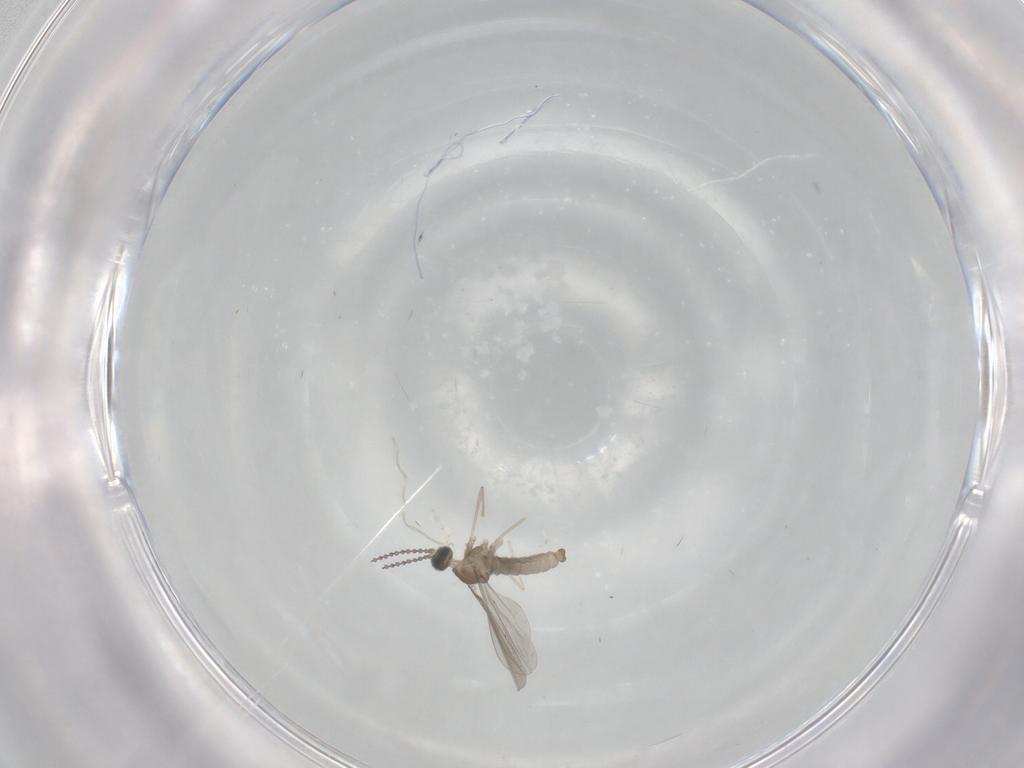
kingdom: Animalia
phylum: Arthropoda
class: Insecta
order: Diptera
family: Cecidomyiidae
